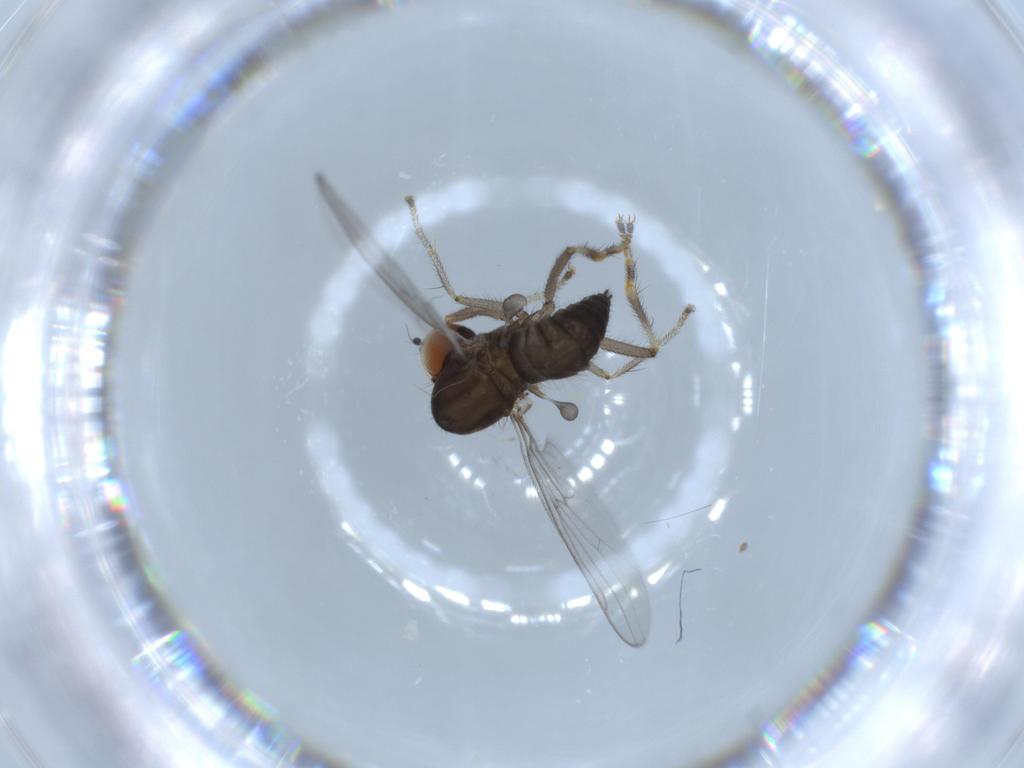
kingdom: Animalia
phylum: Arthropoda
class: Insecta
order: Diptera
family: Hybotidae
